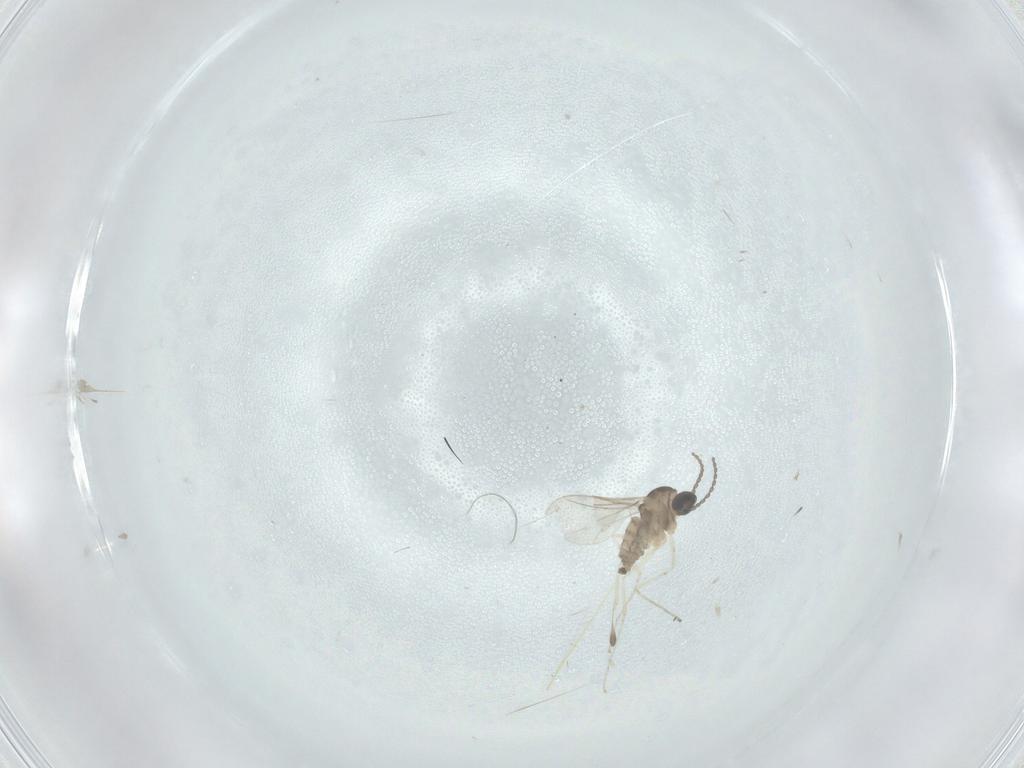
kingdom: Animalia
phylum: Arthropoda
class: Insecta
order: Diptera
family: Cecidomyiidae
